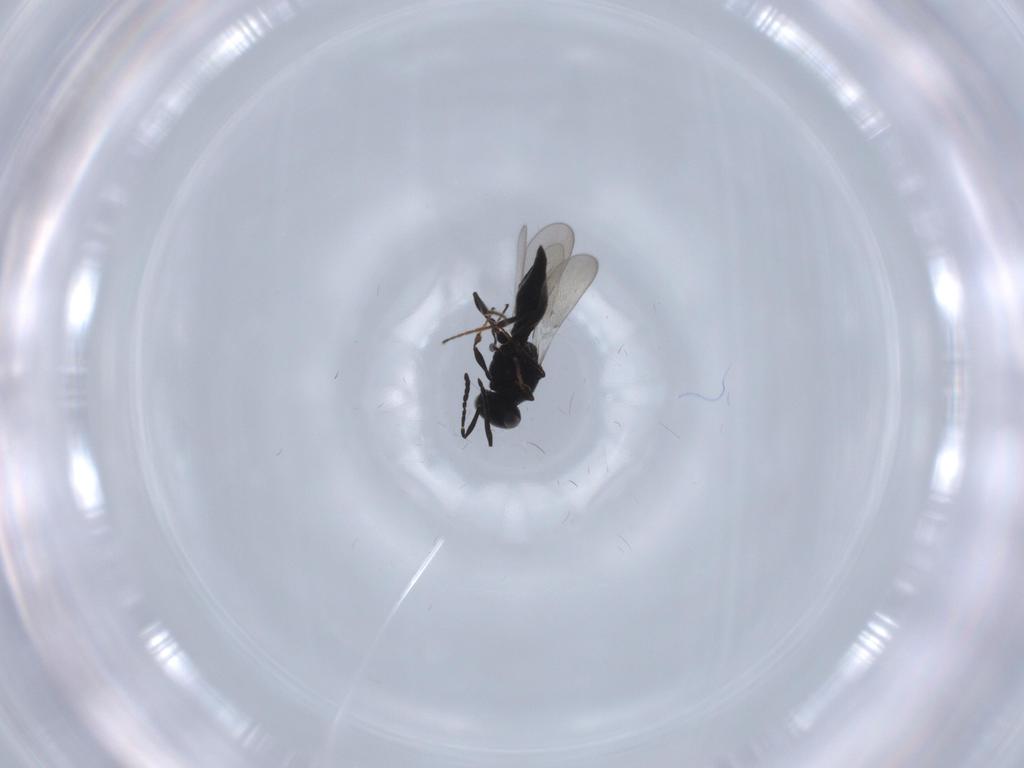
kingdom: Animalia
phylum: Arthropoda
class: Insecta
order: Hymenoptera
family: Platygastridae
